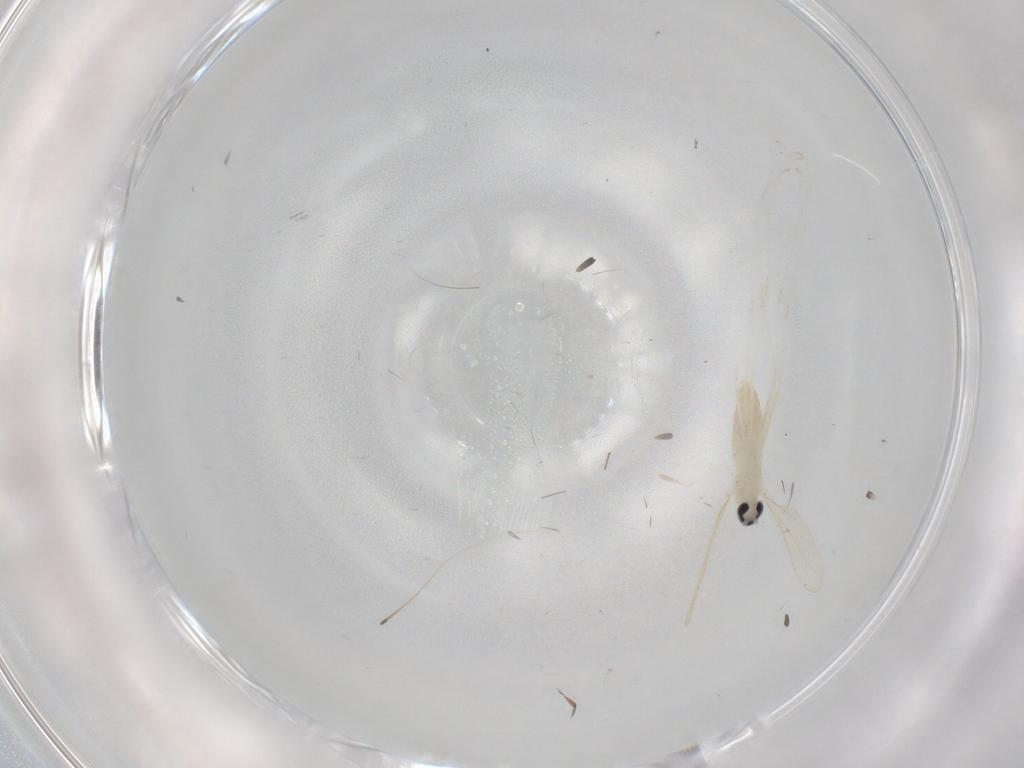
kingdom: Animalia
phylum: Arthropoda
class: Insecta
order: Diptera
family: Cecidomyiidae
